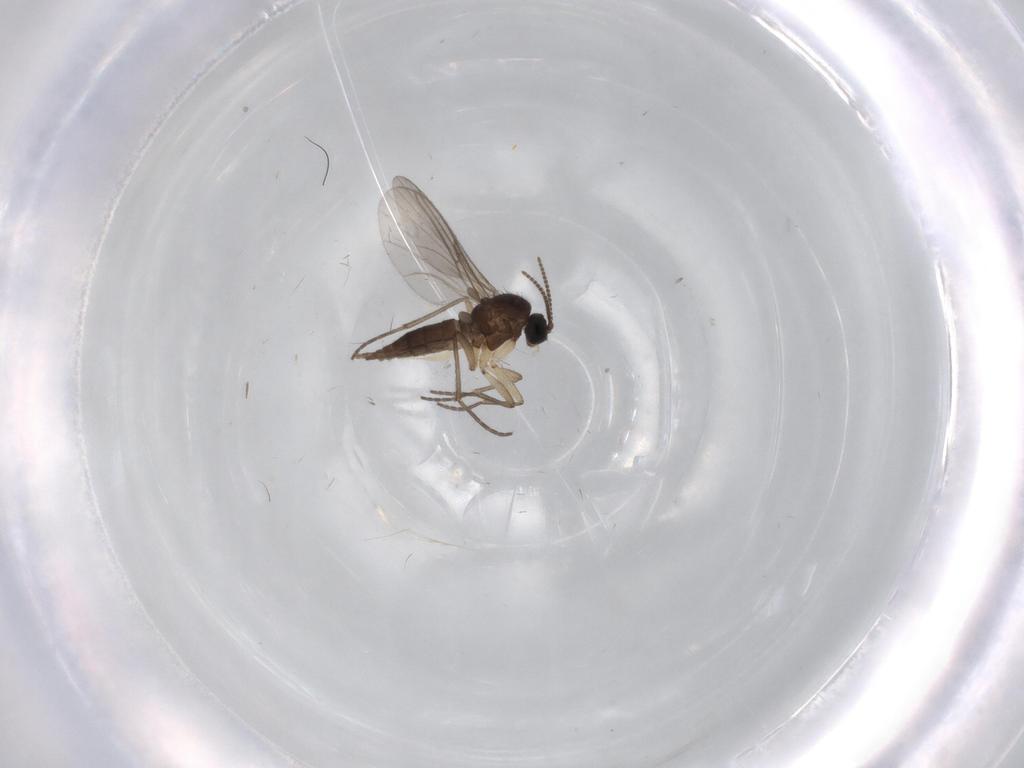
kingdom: Animalia
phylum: Arthropoda
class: Insecta
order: Diptera
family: Sciaridae
